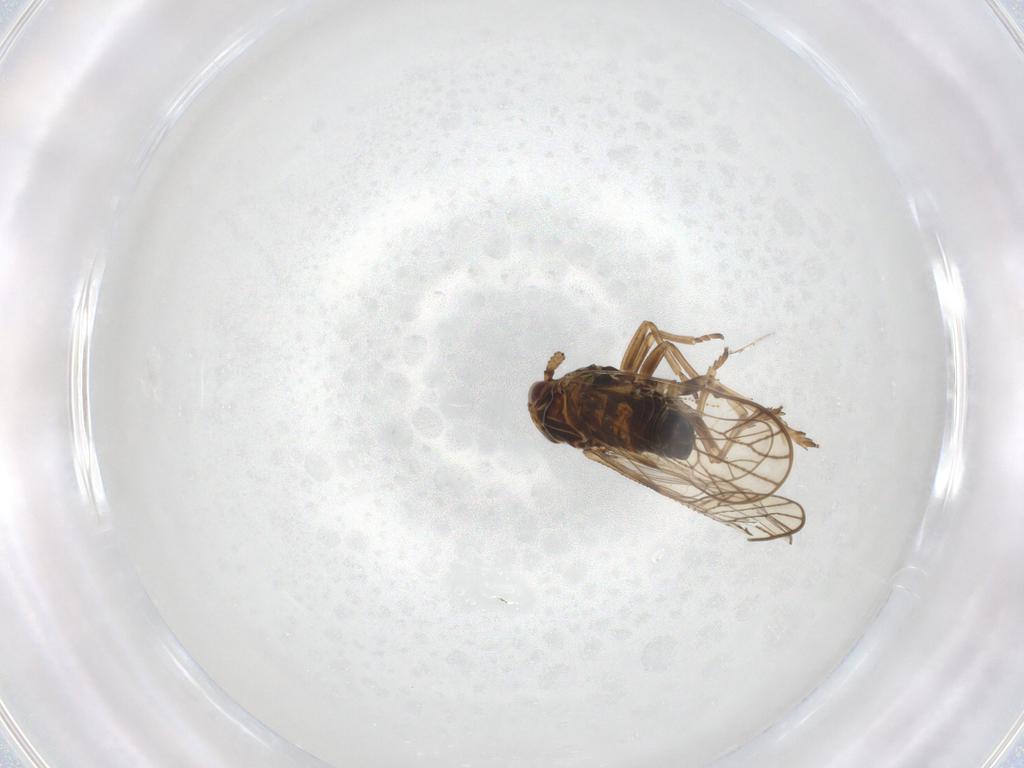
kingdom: Animalia
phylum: Arthropoda
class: Insecta
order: Hemiptera
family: Delphacidae
